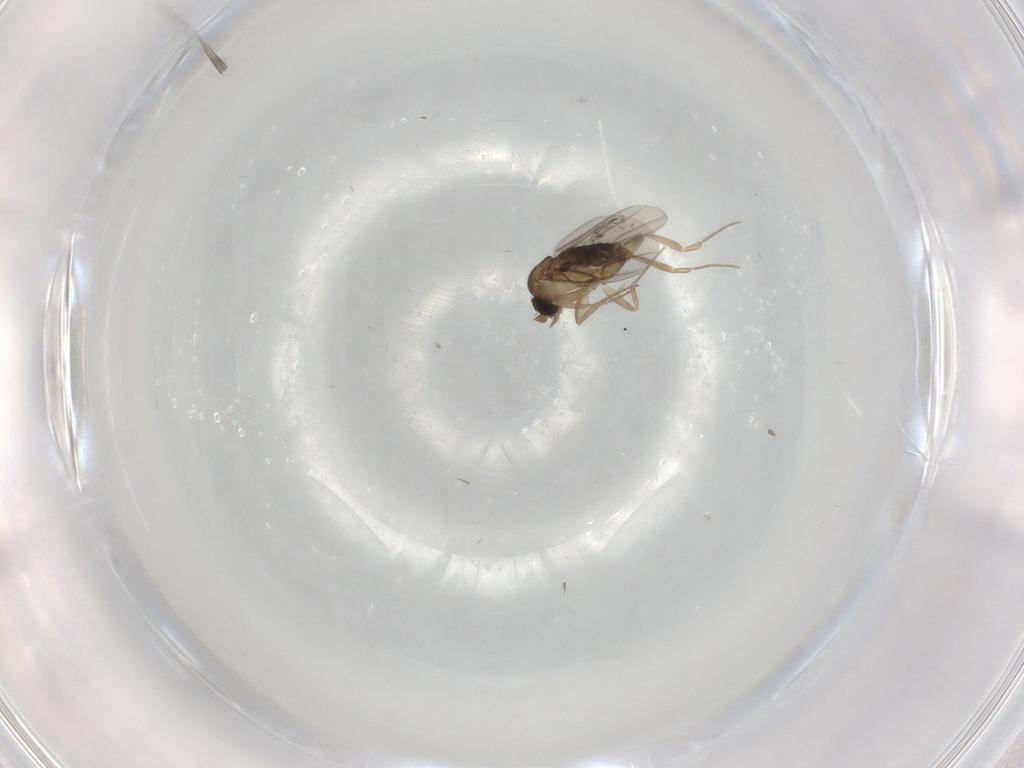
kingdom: Animalia
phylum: Arthropoda
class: Insecta
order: Diptera
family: Phoridae
